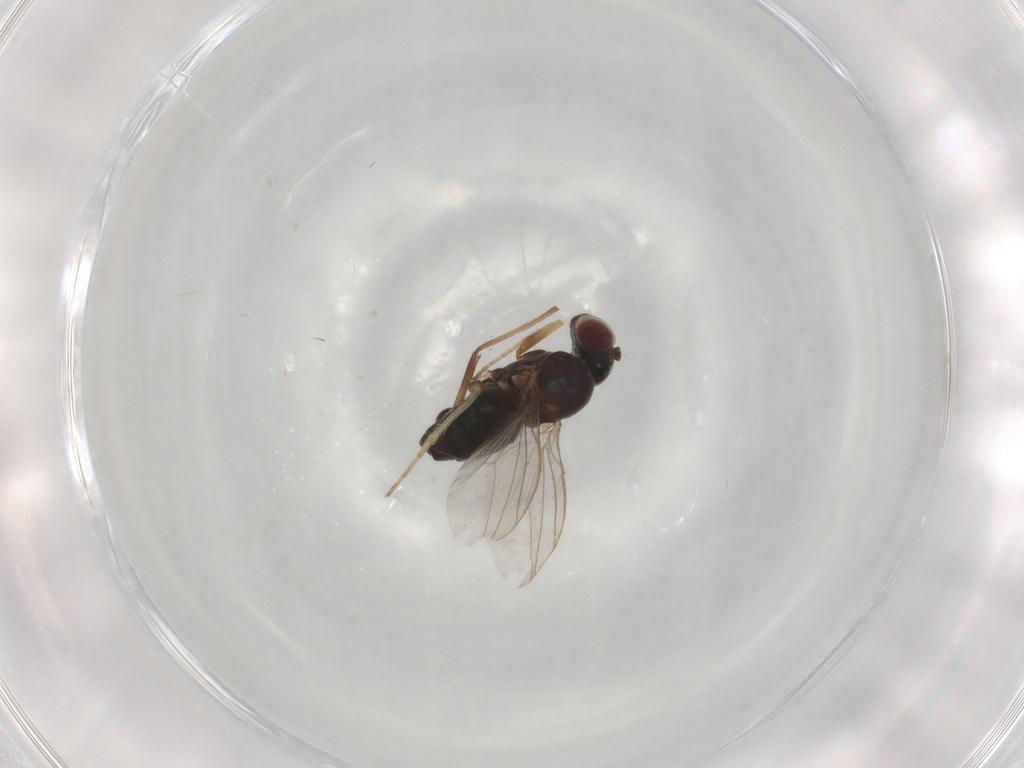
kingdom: Animalia
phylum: Arthropoda
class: Insecta
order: Diptera
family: Dolichopodidae
